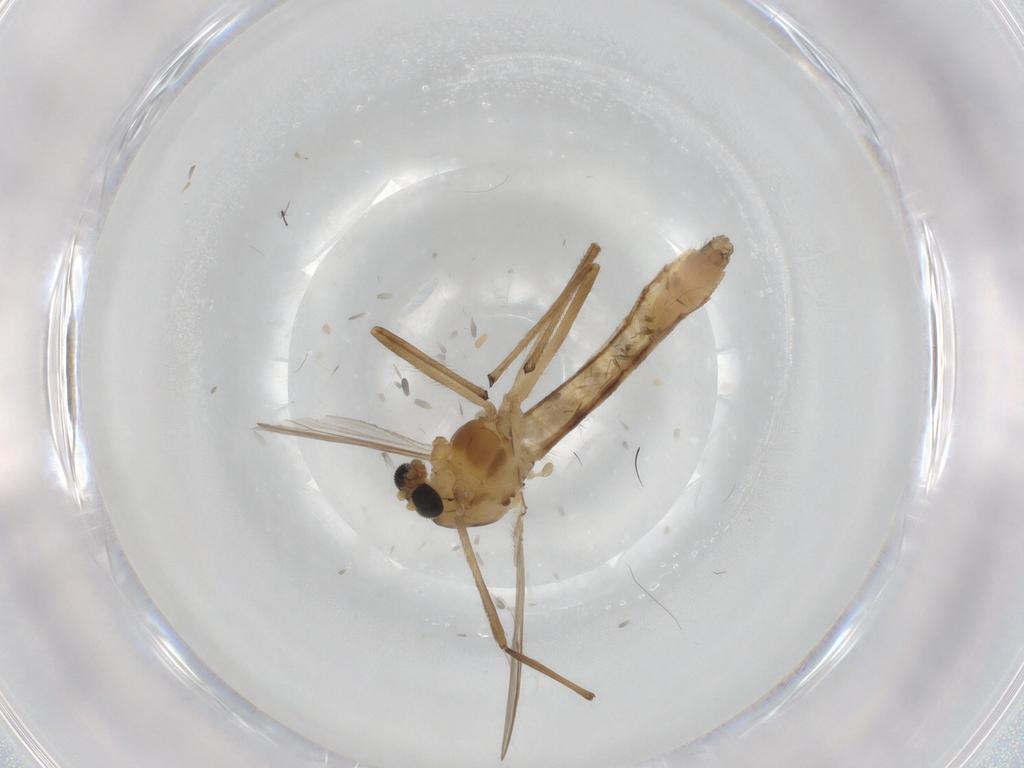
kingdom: Animalia
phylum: Arthropoda
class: Insecta
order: Diptera
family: Chironomidae
